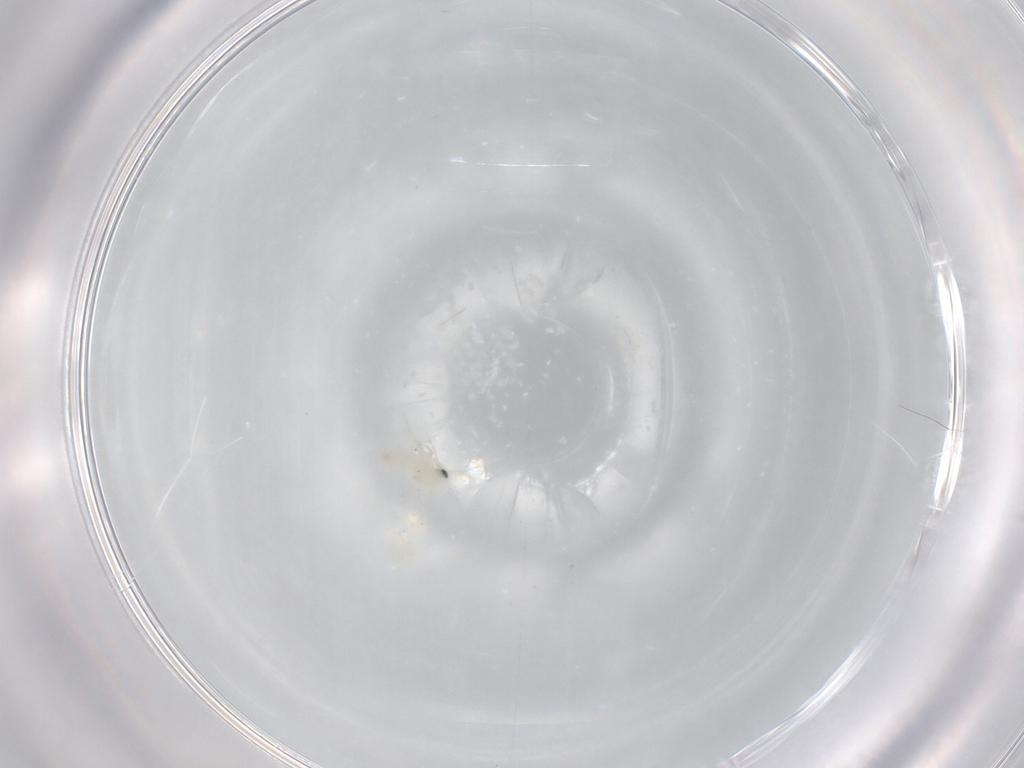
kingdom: Animalia
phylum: Arthropoda
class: Insecta
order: Hemiptera
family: Aleyrodidae
